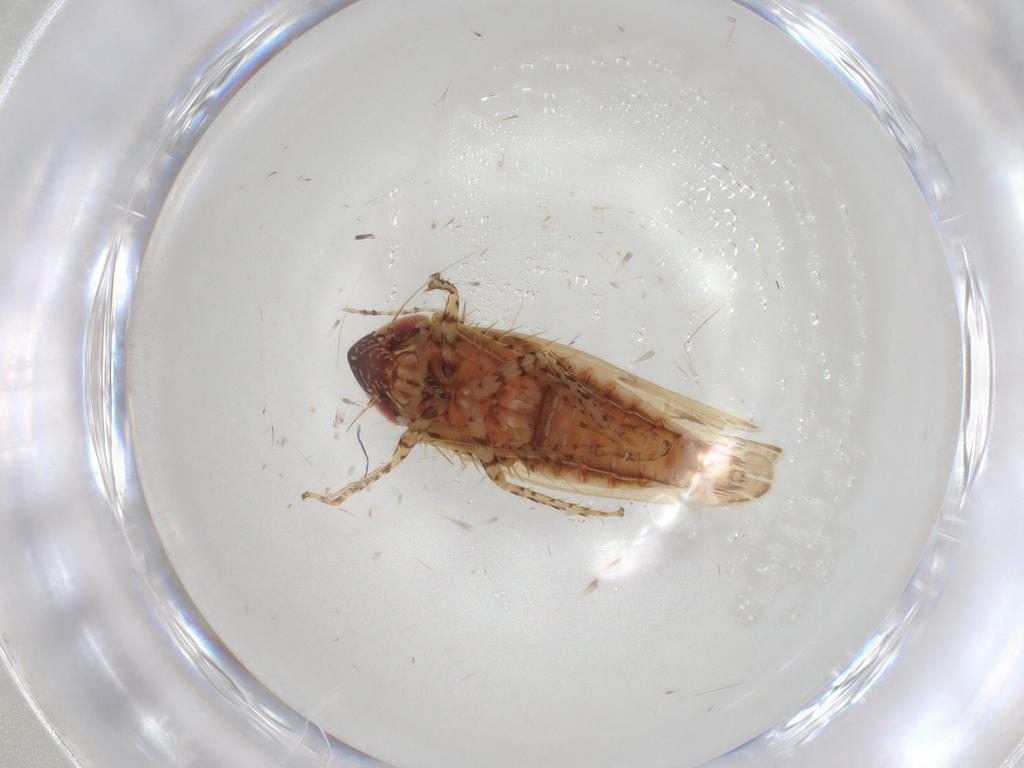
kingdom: Animalia
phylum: Arthropoda
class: Insecta
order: Hemiptera
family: Cicadellidae
